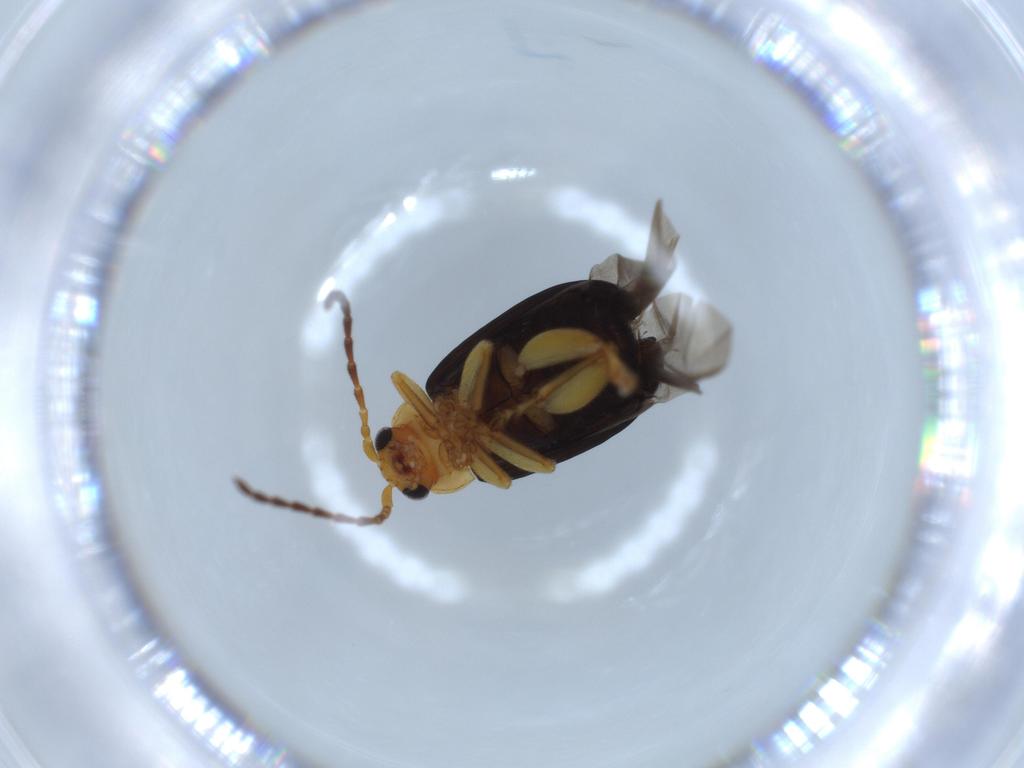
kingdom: Animalia
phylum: Arthropoda
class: Insecta
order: Coleoptera
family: Chrysomelidae
